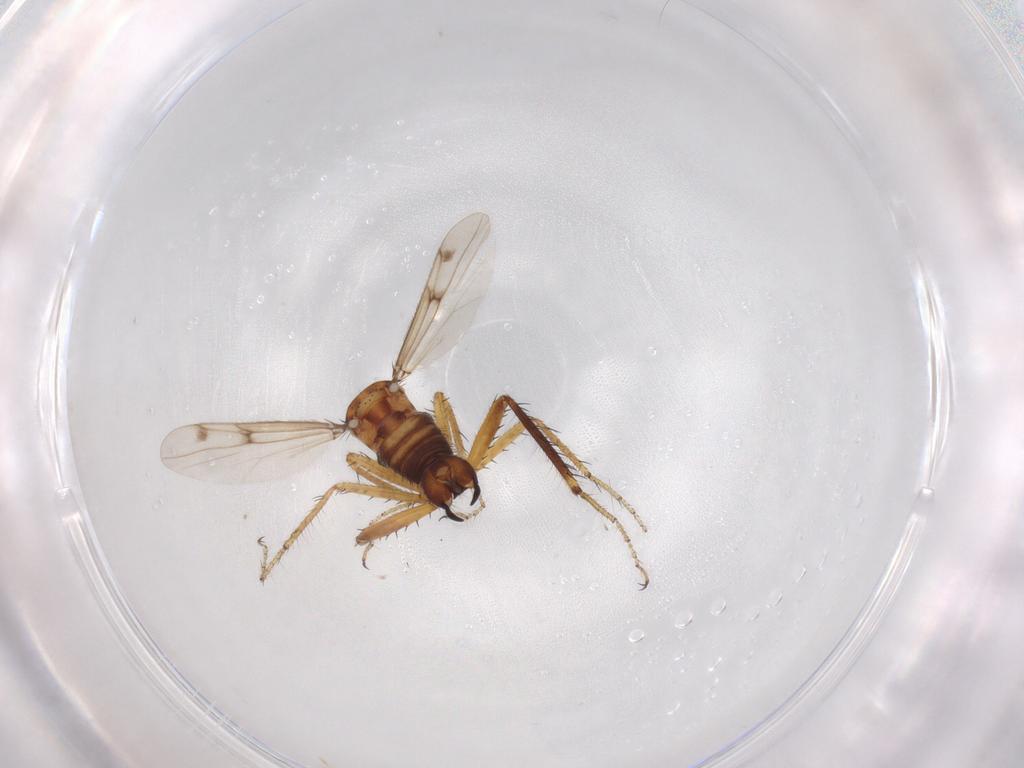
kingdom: Animalia
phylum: Arthropoda
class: Insecta
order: Diptera
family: Ceratopogonidae
